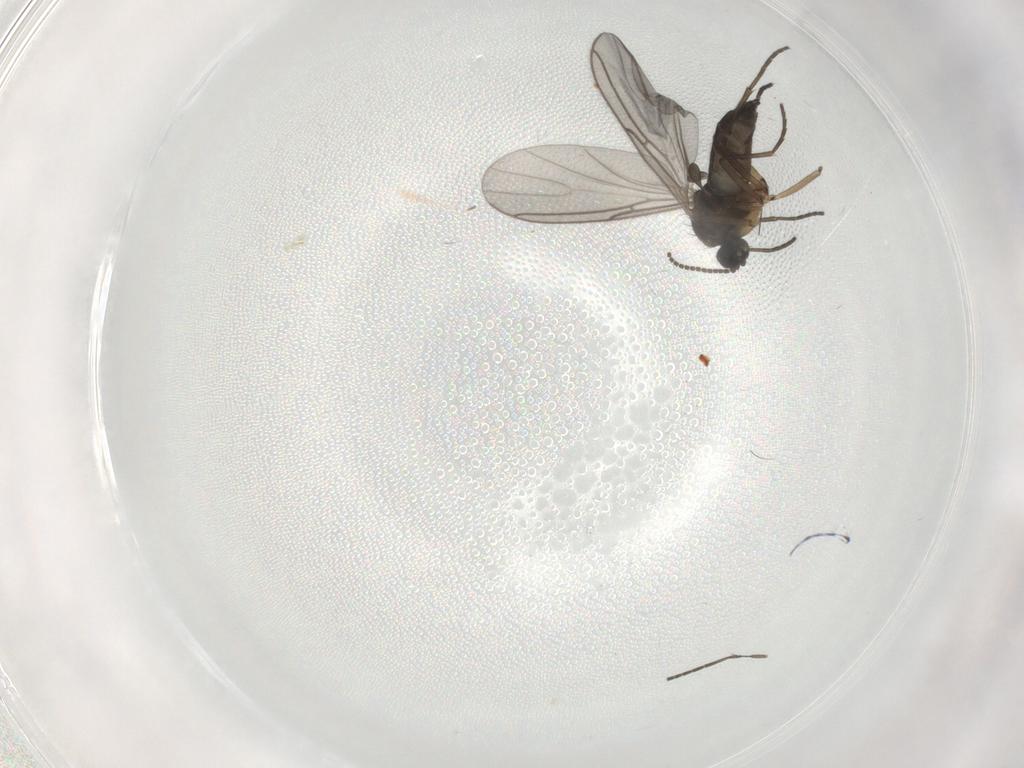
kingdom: Animalia
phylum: Arthropoda
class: Insecta
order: Diptera
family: Sciaridae
